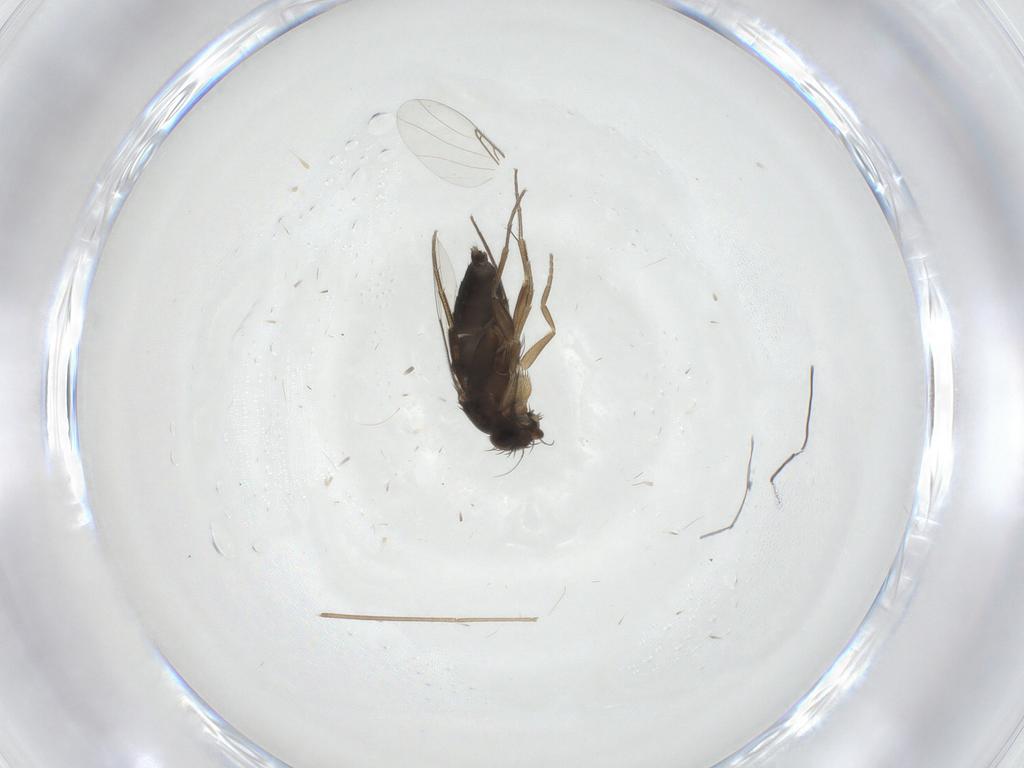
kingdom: Animalia
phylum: Arthropoda
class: Insecta
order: Diptera
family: Phoridae
